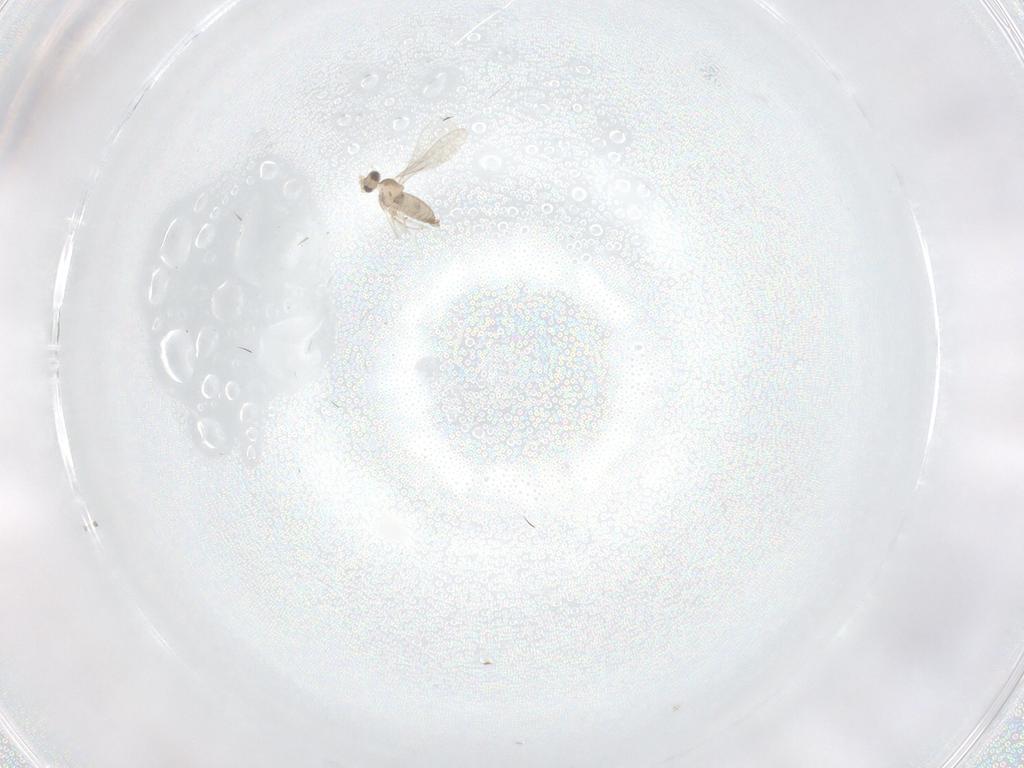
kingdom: Animalia
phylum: Arthropoda
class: Insecta
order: Diptera
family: Cecidomyiidae
